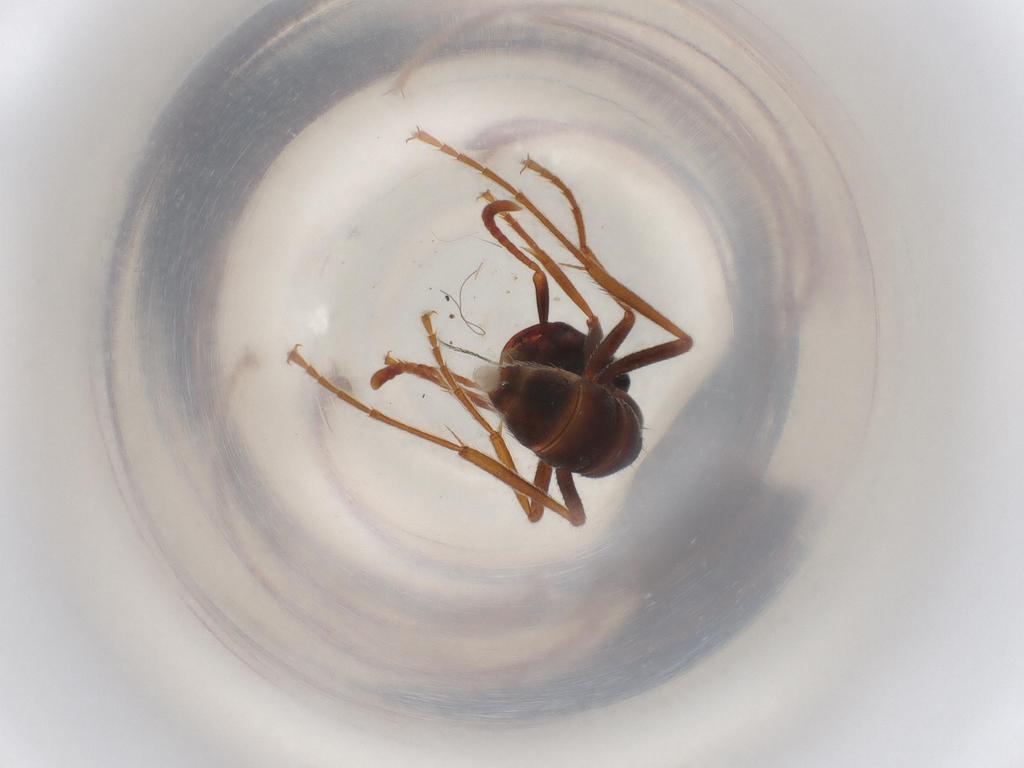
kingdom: Animalia
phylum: Arthropoda
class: Insecta
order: Hymenoptera
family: Formicidae
